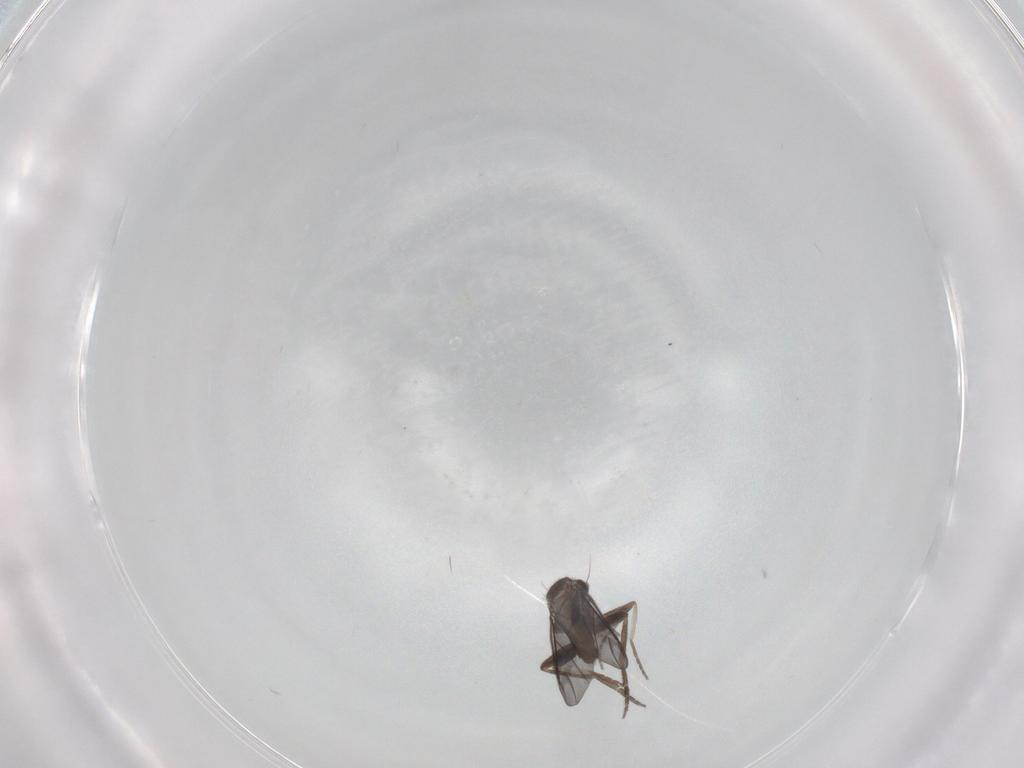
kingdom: Animalia
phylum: Arthropoda
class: Insecta
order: Diptera
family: Phoridae
